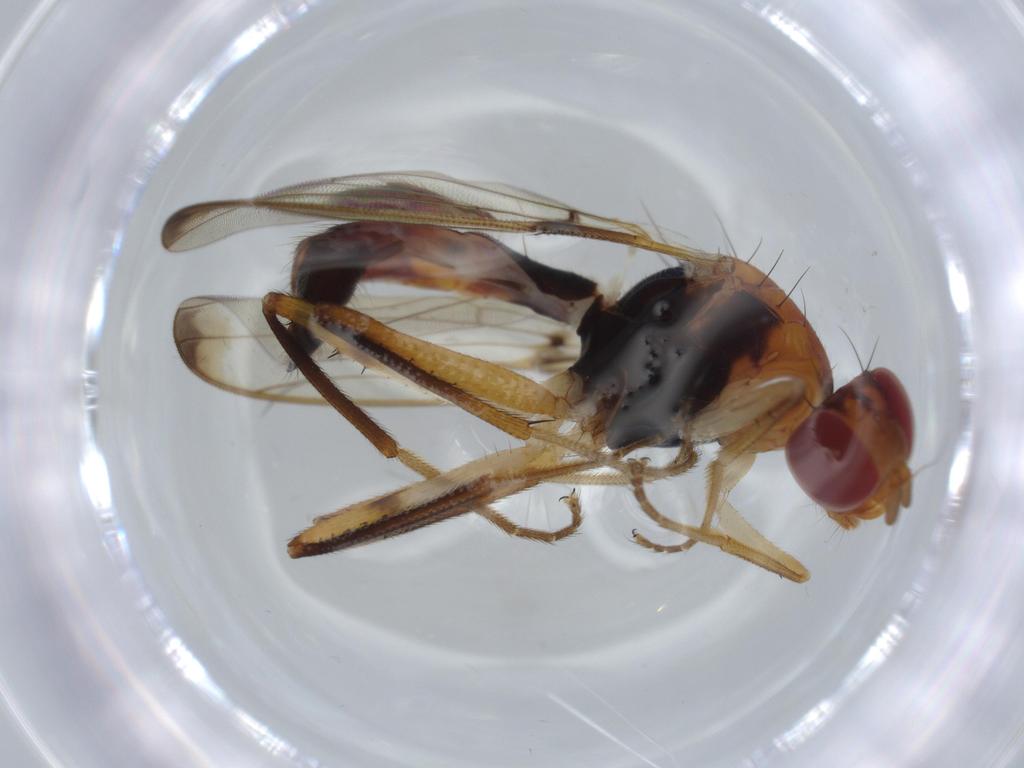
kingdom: Animalia
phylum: Arthropoda
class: Insecta
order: Diptera
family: Richardiidae
